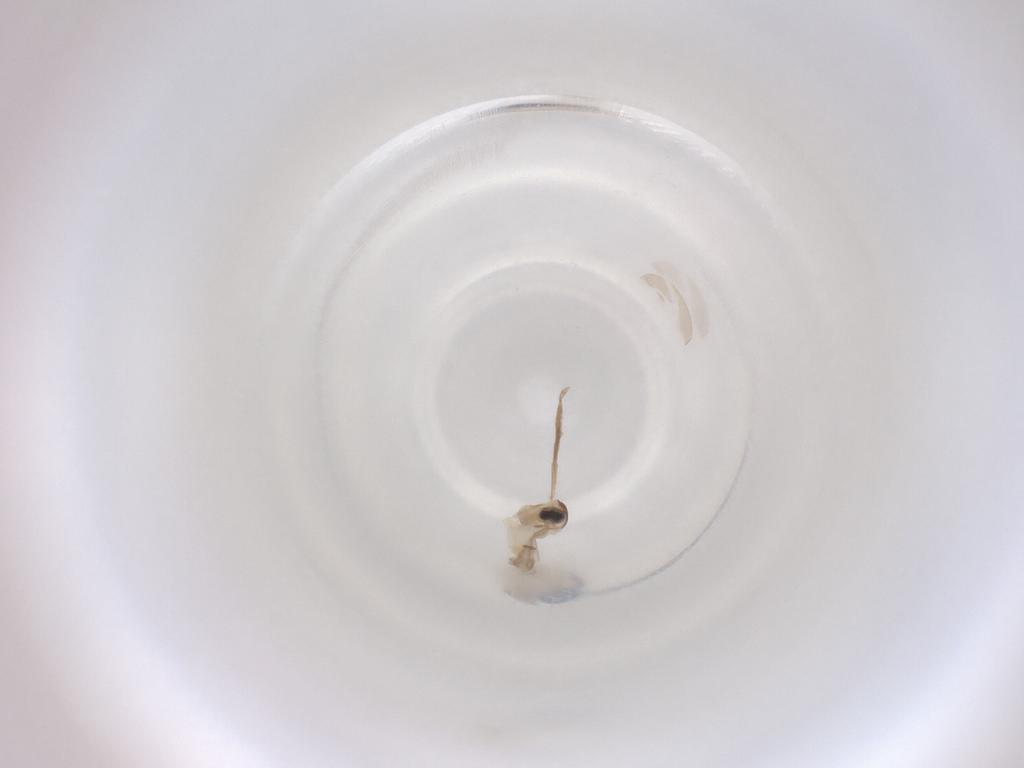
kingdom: Animalia
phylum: Arthropoda
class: Insecta
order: Diptera
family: Cecidomyiidae
